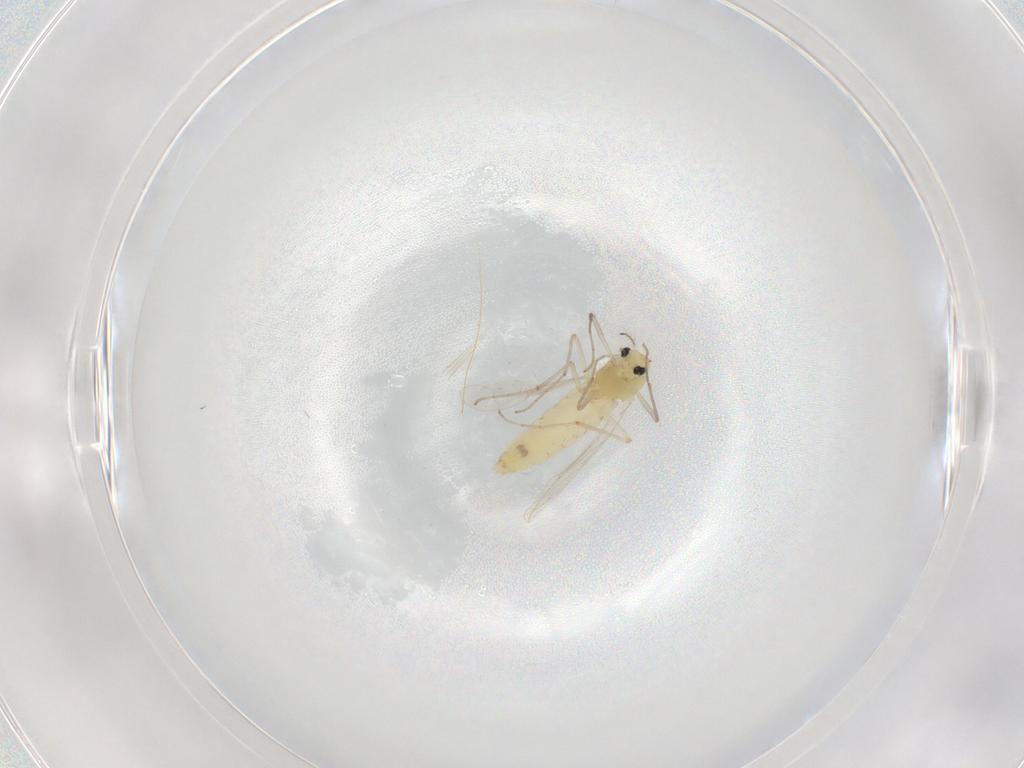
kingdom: Animalia
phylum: Arthropoda
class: Insecta
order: Diptera
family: Chironomidae
